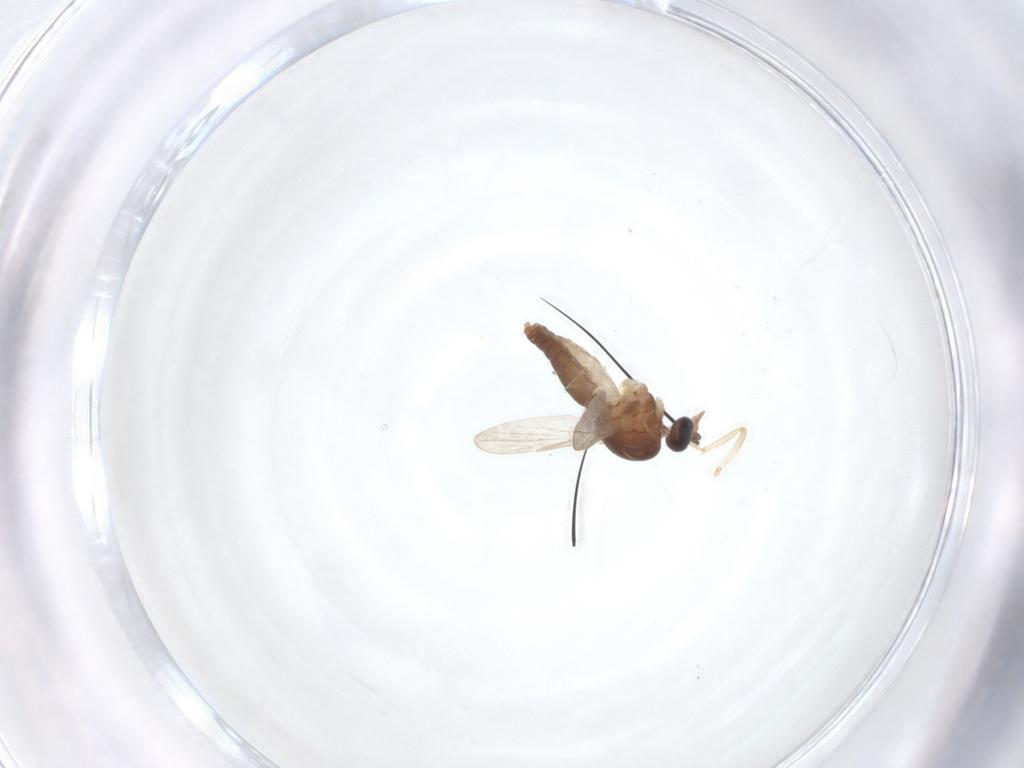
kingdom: Animalia
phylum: Arthropoda
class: Insecta
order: Diptera
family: Ceratopogonidae
